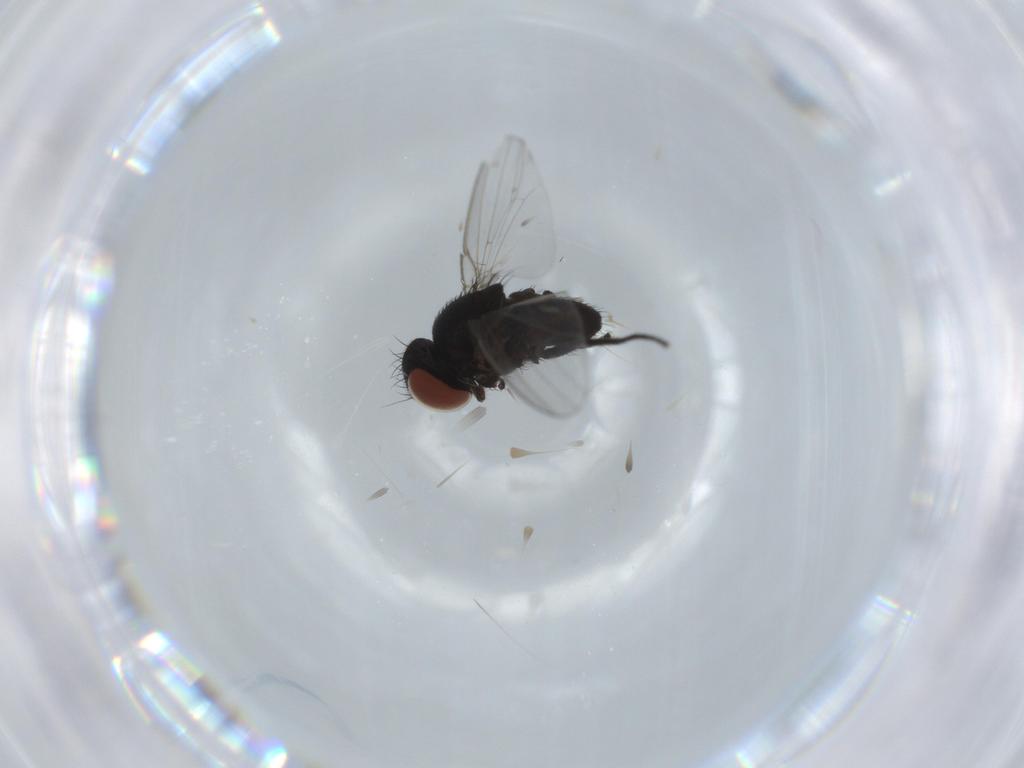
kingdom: Animalia
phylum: Arthropoda
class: Insecta
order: Diptera
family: Milichiidae
